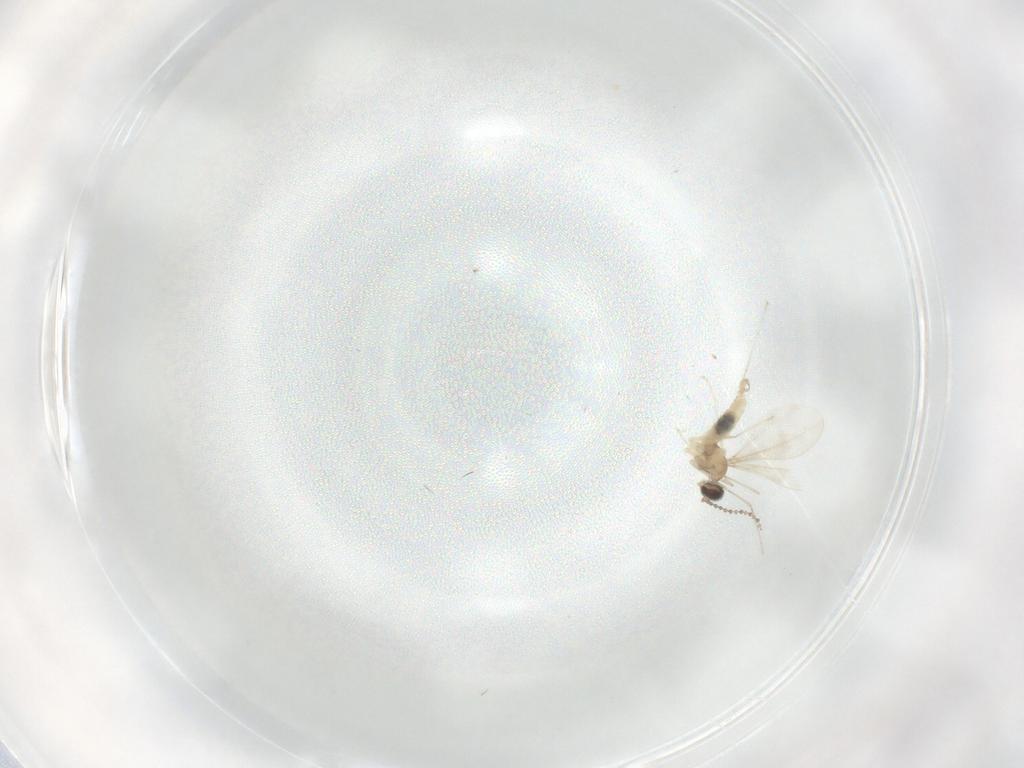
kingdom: Animalia
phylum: Arthropoda
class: Insecta
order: Diptera
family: Cecidomyiidae
